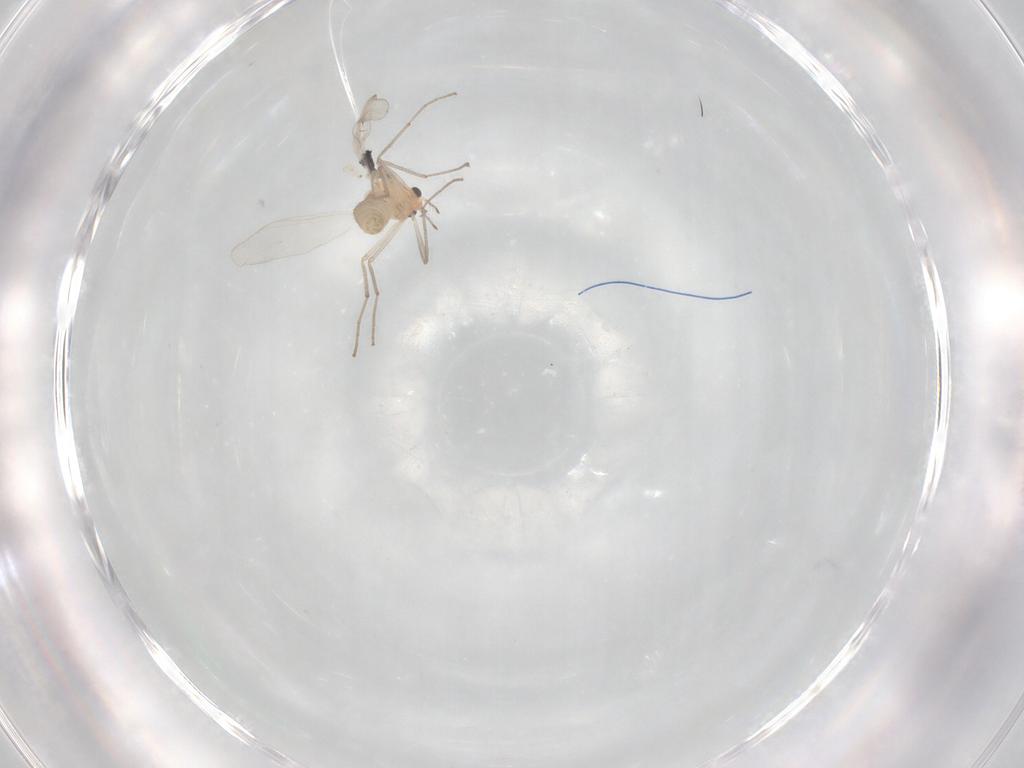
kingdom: Animalia
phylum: Arthropoda
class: Insecta
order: Diptera
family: Chironomidae
